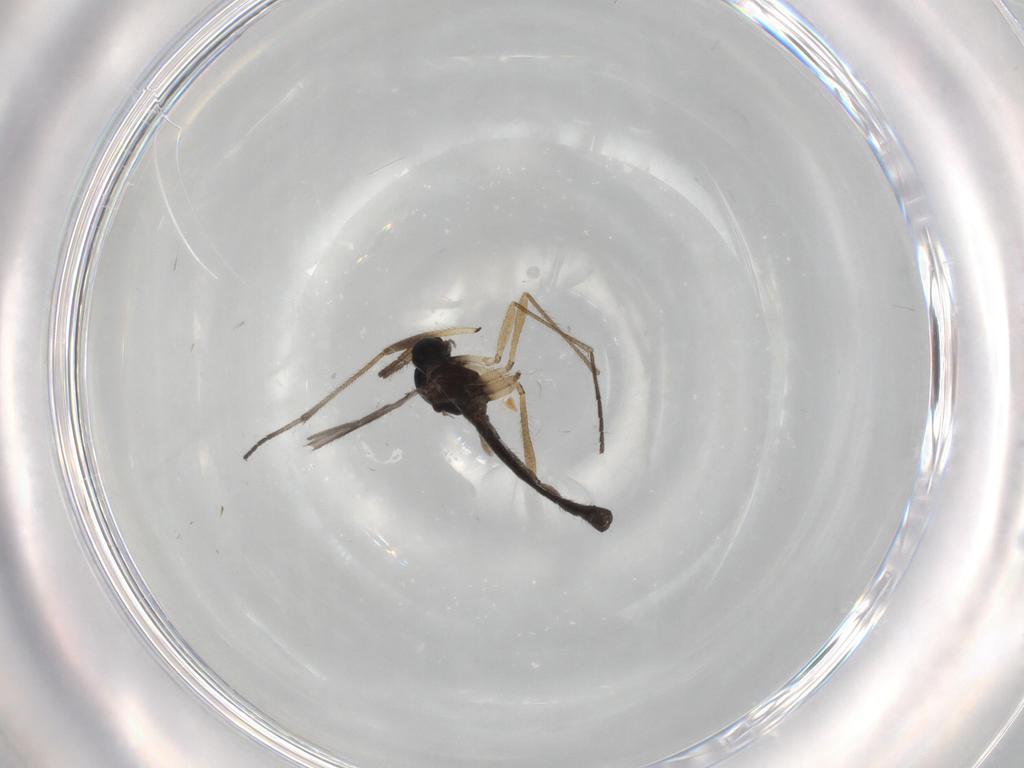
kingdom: Animalia
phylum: Arthropoda
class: Insecta
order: Diptera
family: Sciaridae
